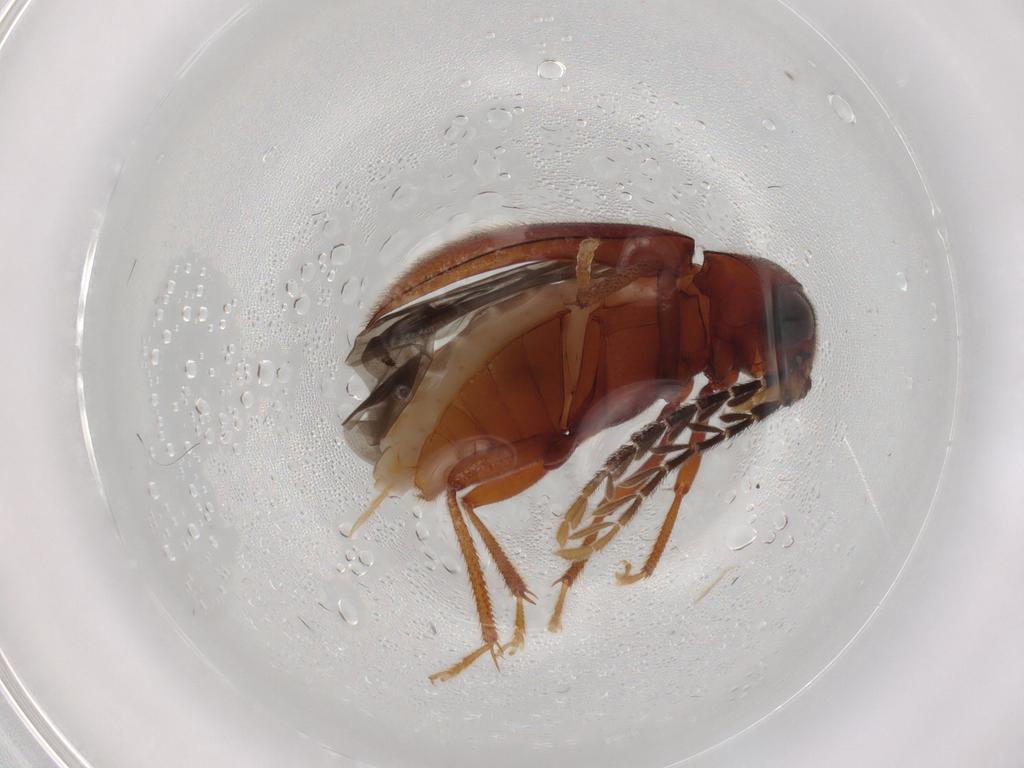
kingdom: Animalia
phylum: Arthropoda
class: Insecta
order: Coleoptera
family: Ptilodactylidae
